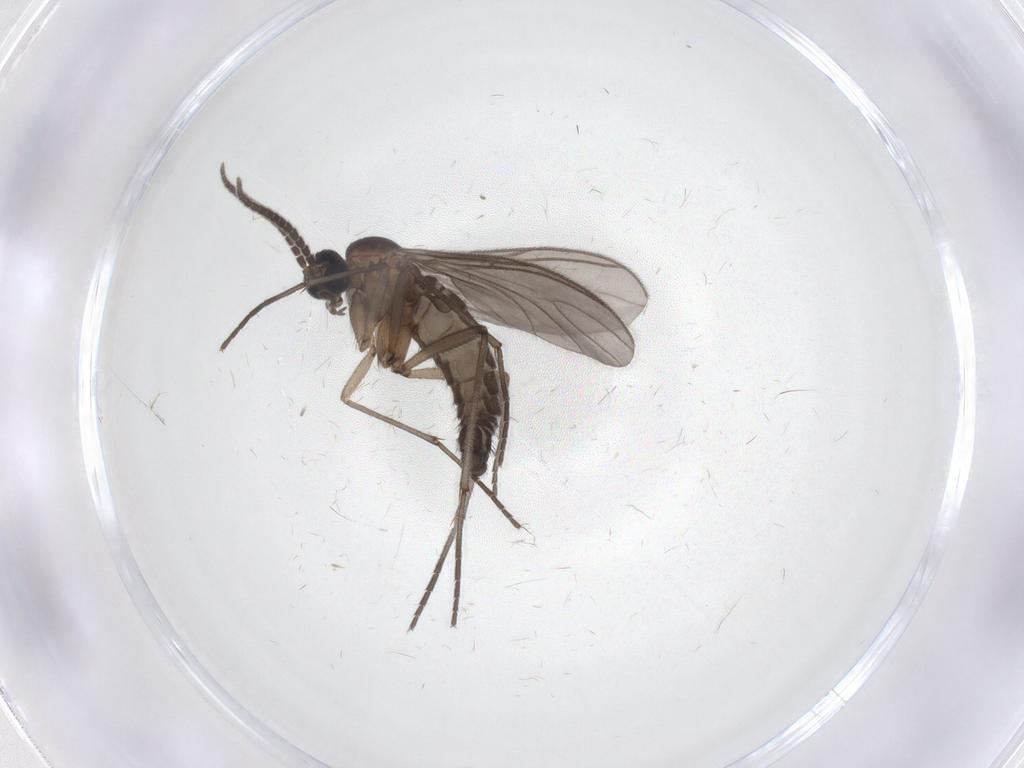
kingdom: Animalia
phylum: Arthropoda
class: Insecta
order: Diptera
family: Sciaridae
